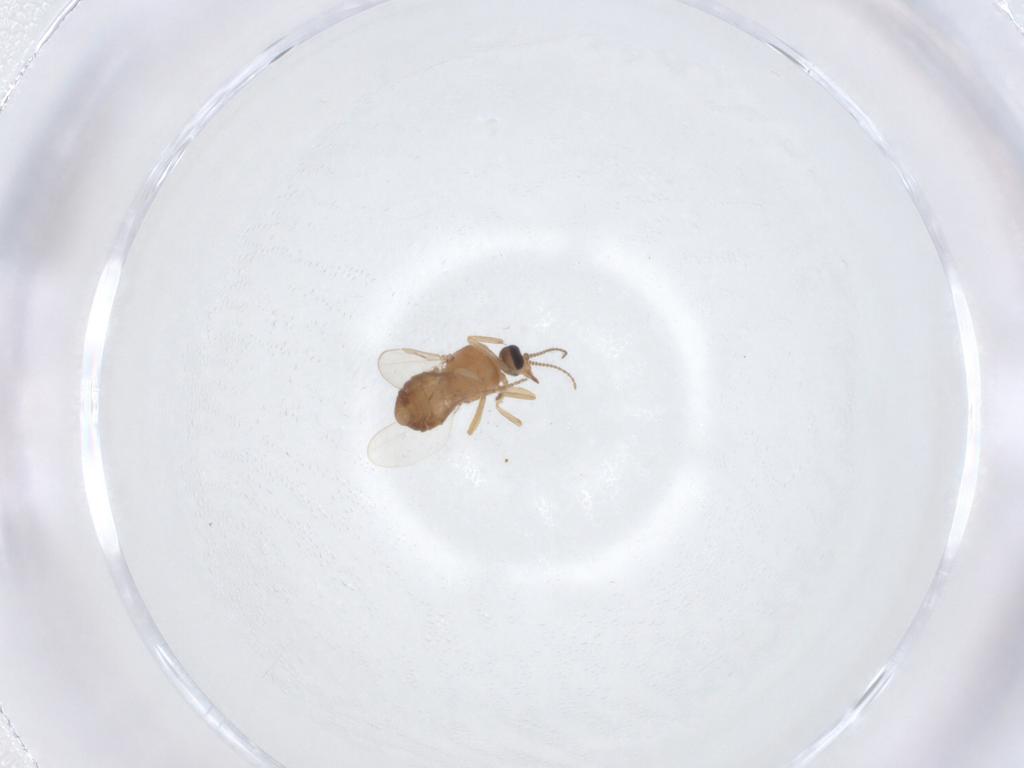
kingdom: Animalia
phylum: Arthropoda
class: Insecta
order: Diptera
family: Ceratopogonidae
